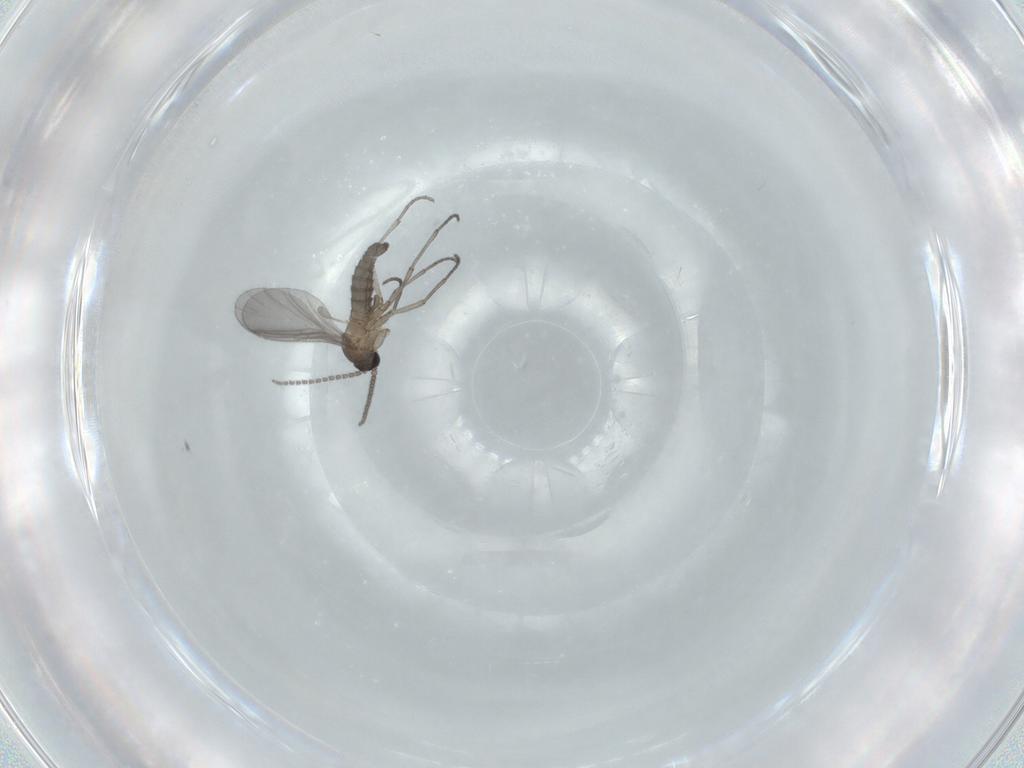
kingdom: Animalia
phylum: Arthropoda
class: Insecta
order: Diptera
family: Sciaridae
